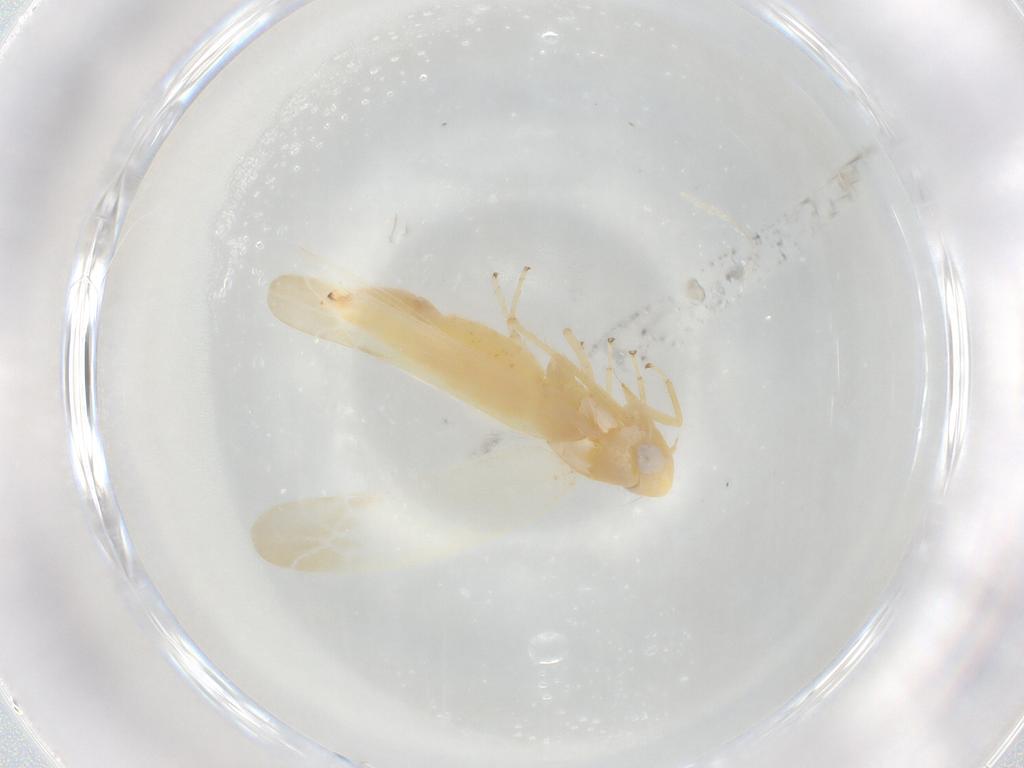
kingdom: Animalia
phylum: Arthropoda
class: Insecta
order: Hemiptera
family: Cicadellidae
